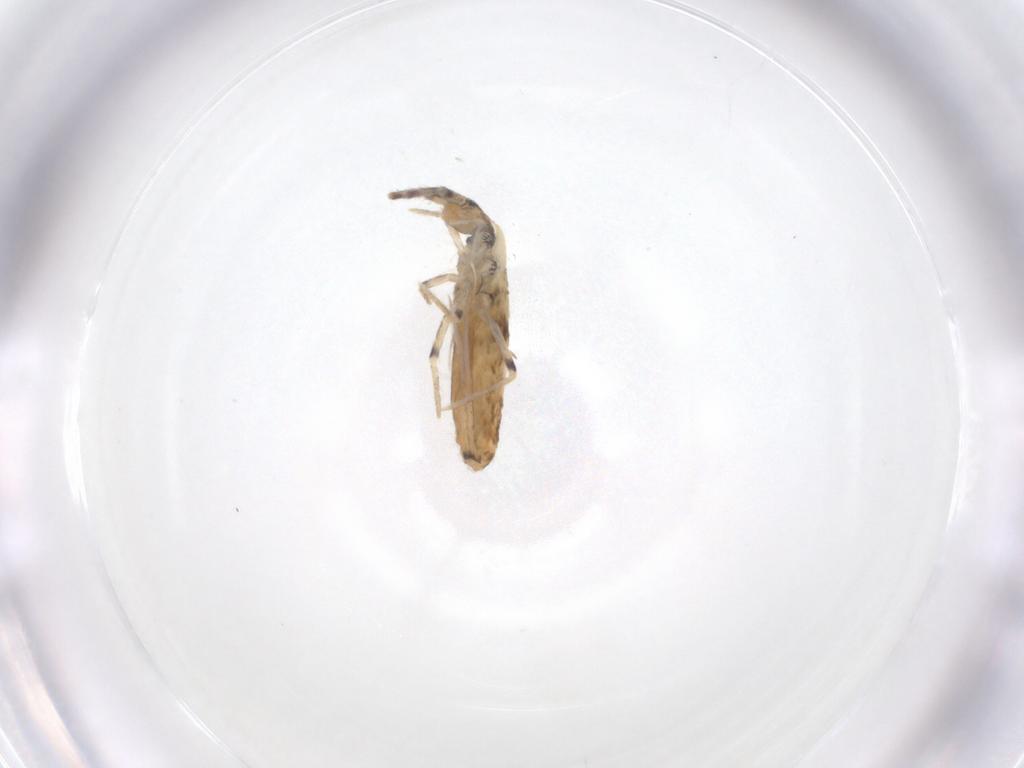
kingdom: Animalia
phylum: Arthropoda
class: Collembola
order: Entomobryomorpha
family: Entomobryidae
